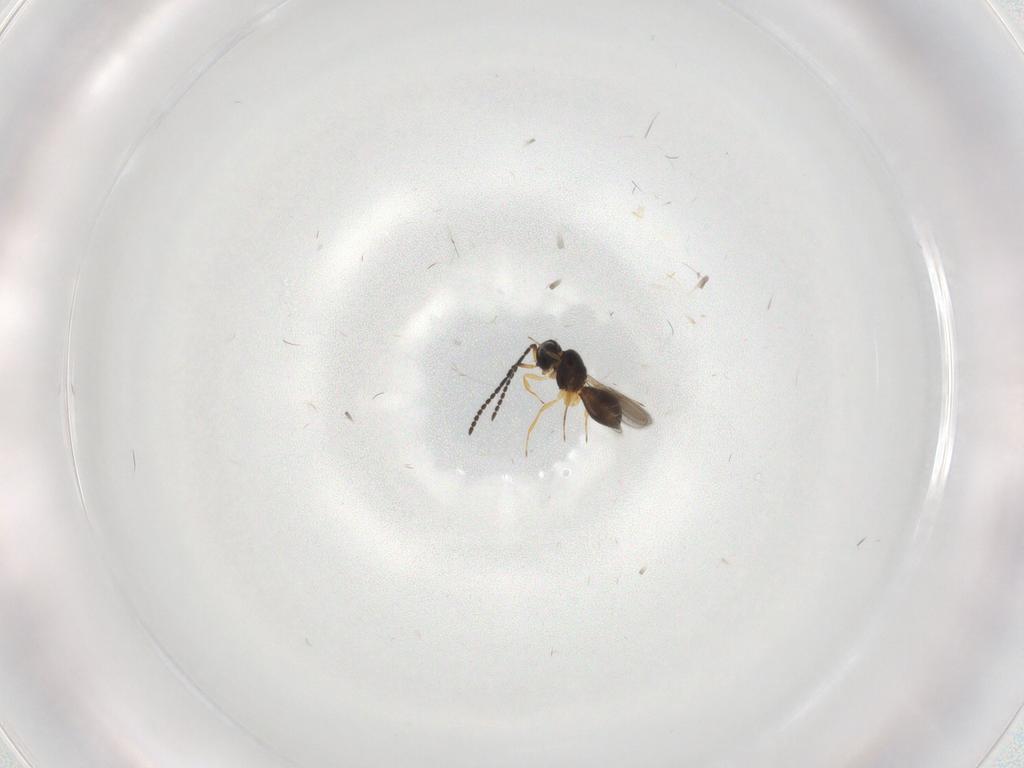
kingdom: Animalia
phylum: Arthropoda
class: Insecta
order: Hymenoptera
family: Scelionidae
